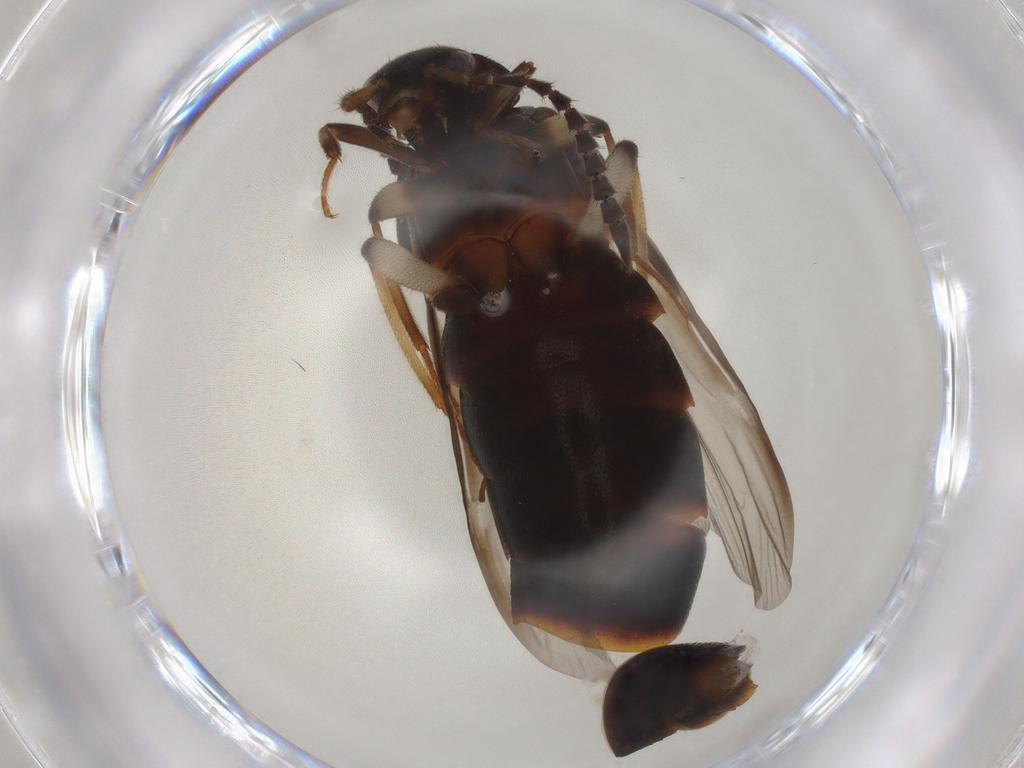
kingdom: Animalia
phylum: Arthropoda
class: Insecta
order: Coleoptera
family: Staphylinidae
